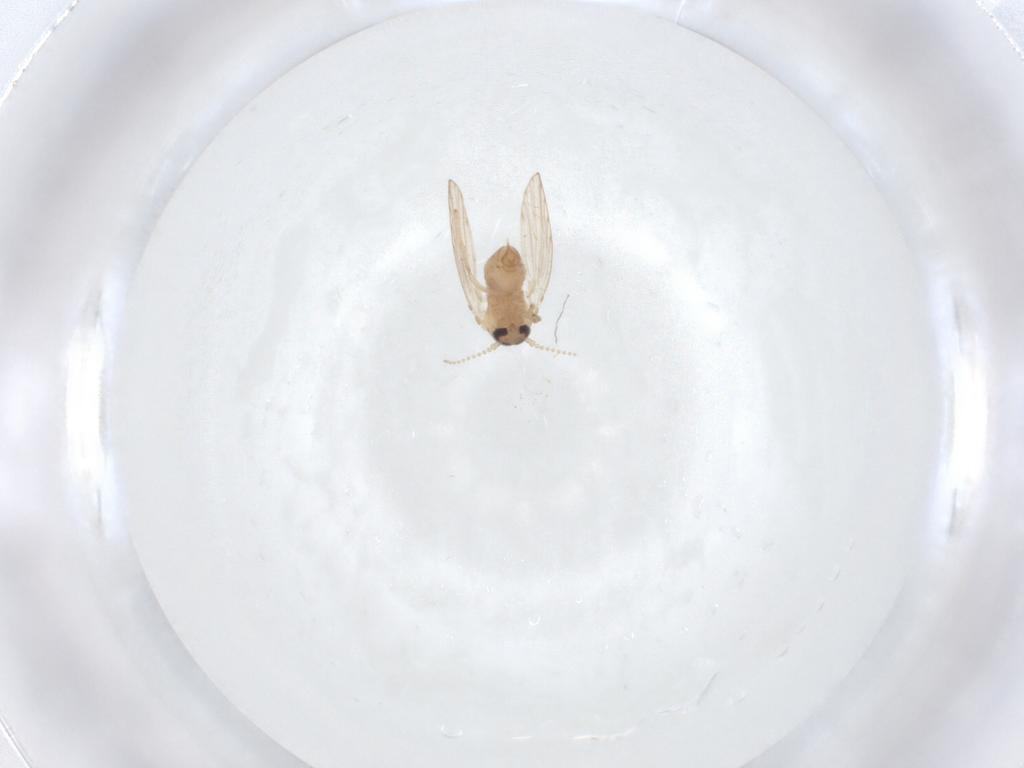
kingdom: Animalia
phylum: Arthropoda
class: Insecta
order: Diptera
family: Psychodidae
